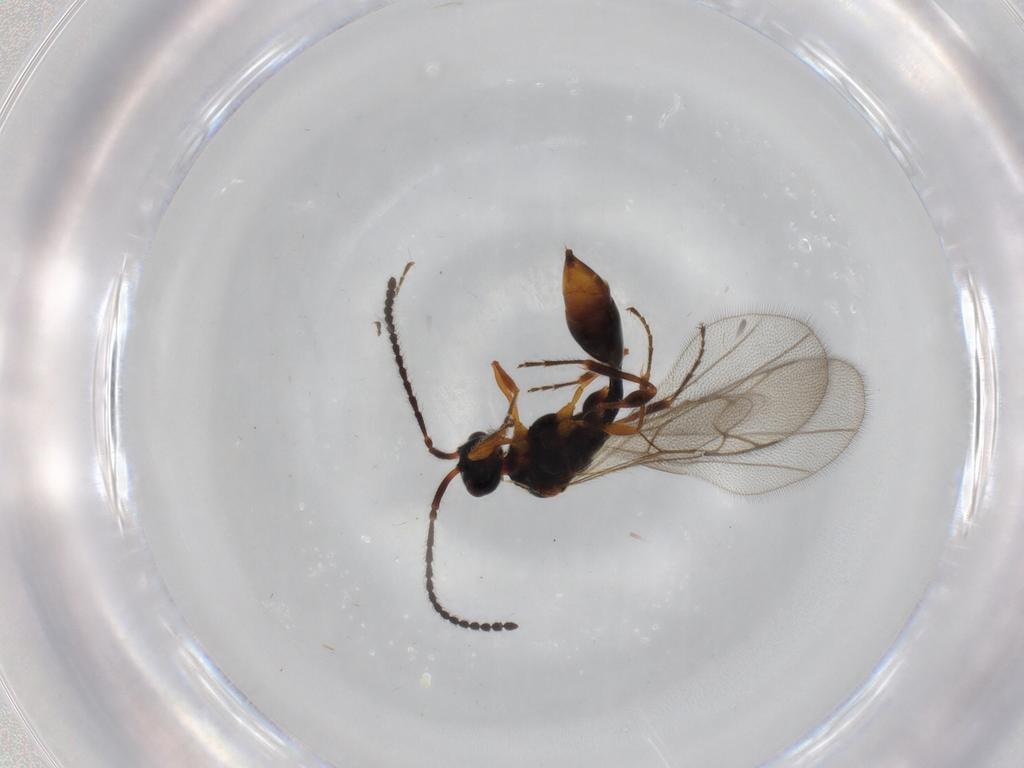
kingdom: Animalia
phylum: Arthropoda
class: Insecta
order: Hymenoptera
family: Diapriidae
